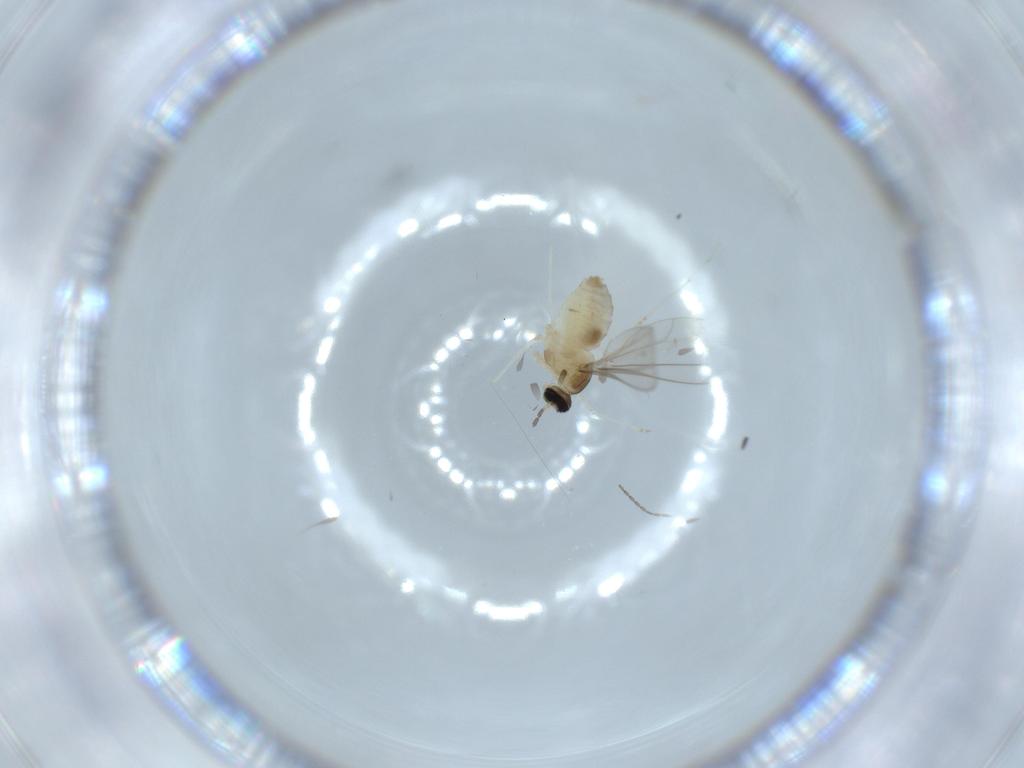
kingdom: Animalia
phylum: Arthropoda
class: Insecta
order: Diptera
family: Cecidomyiidae
